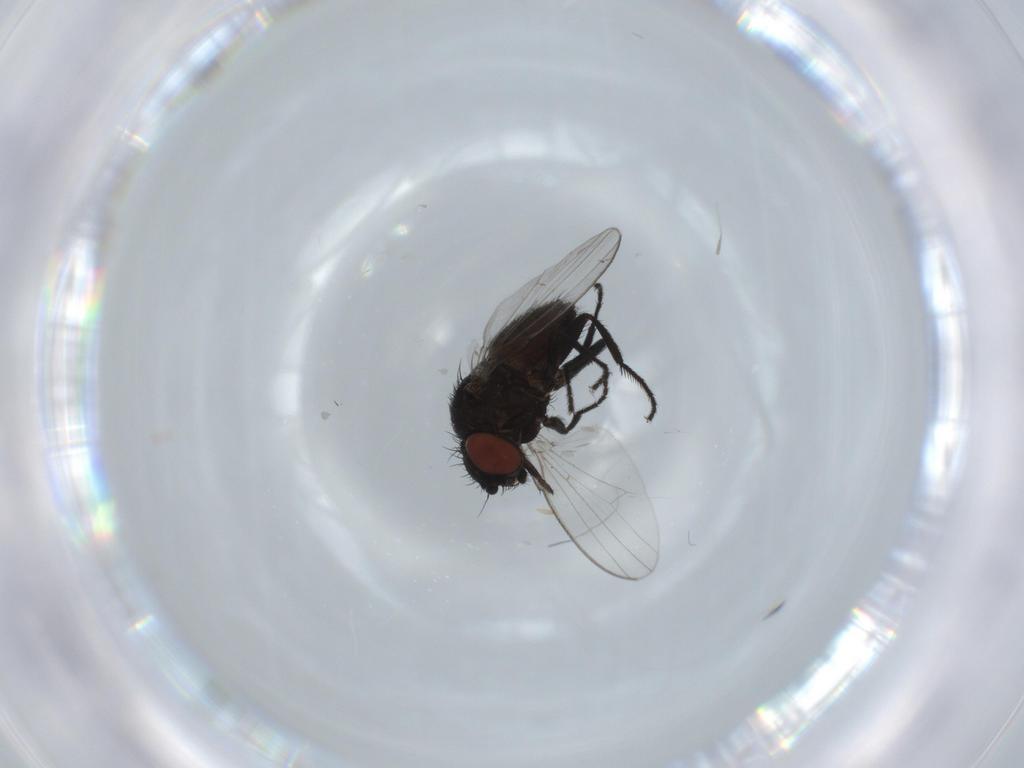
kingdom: Animalia
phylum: Arthropoda
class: Insecta
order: Diptera
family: Milichiidae
